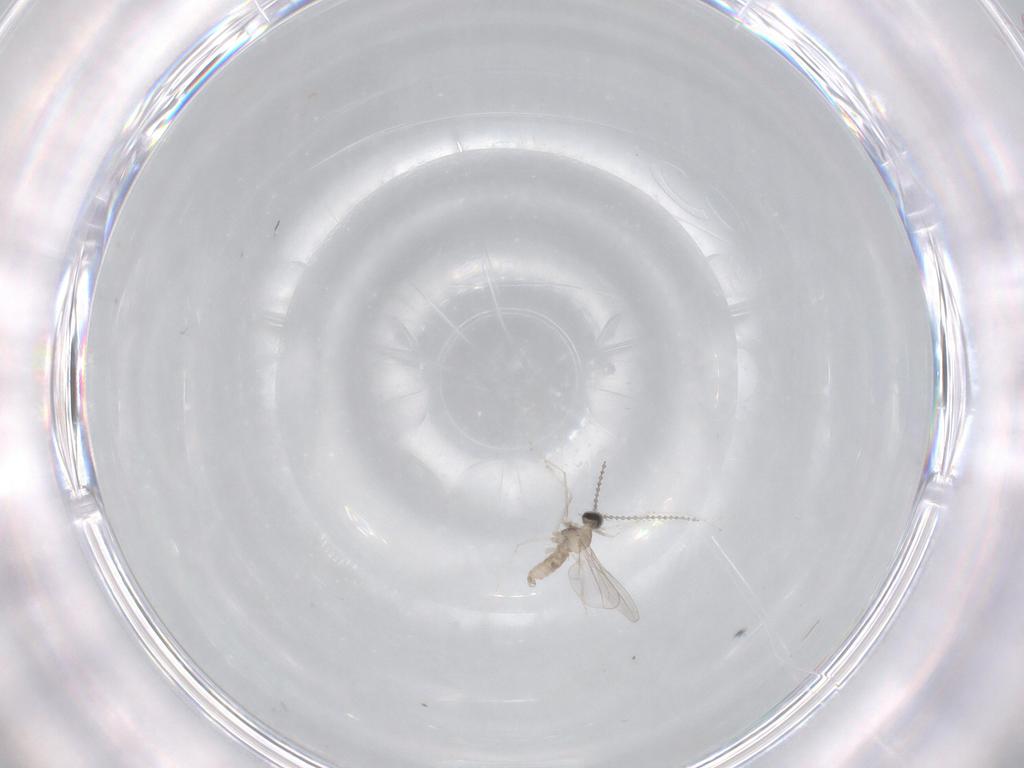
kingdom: Animalia
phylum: Arthropoda
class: Insecta
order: Diptera
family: Cecidomyiidae
